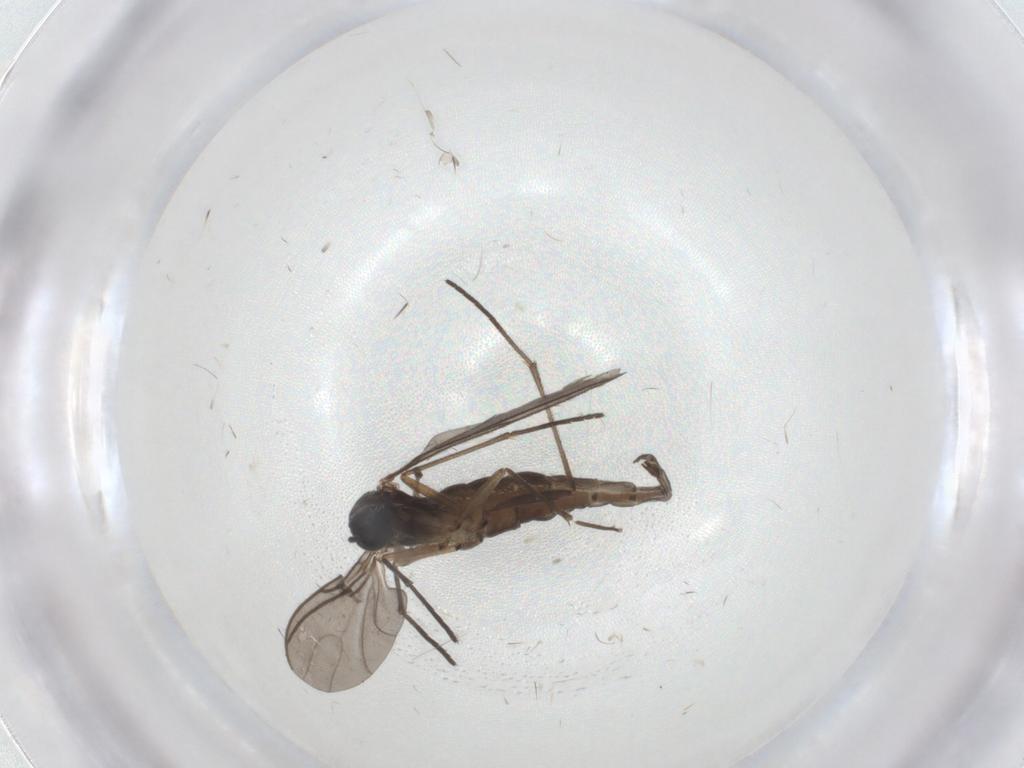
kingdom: Animalia
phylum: Arthropoda
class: Insecta
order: Diptera
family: Sciaridae
